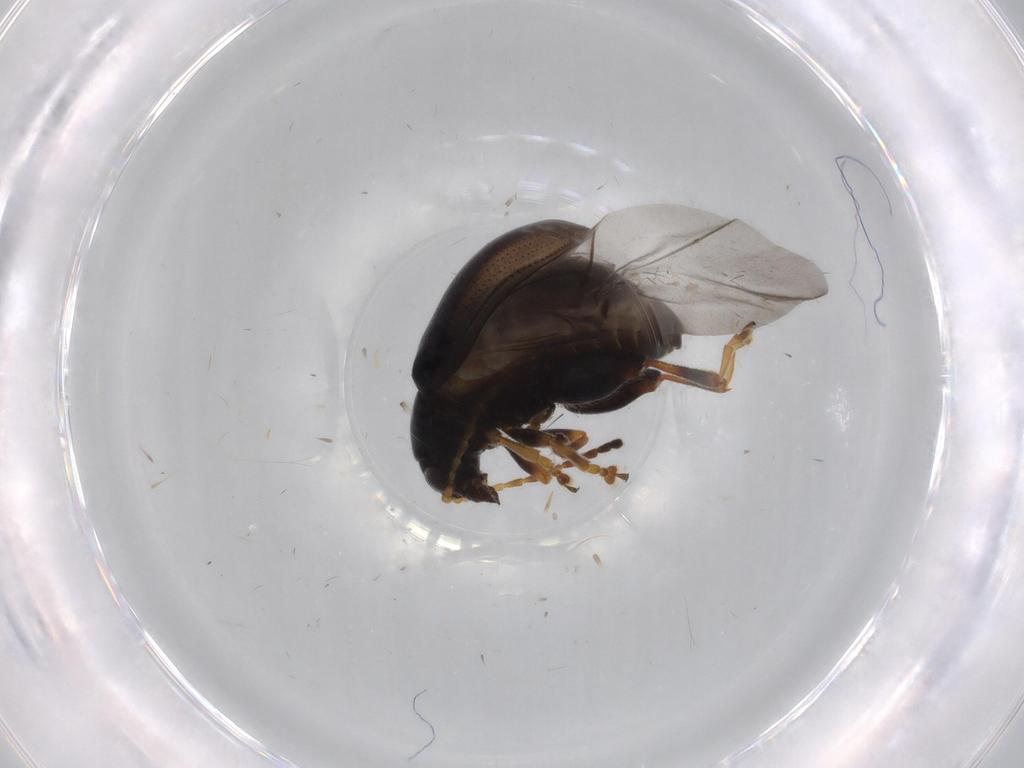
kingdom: Animalia
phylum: Arthropoda
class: Insecta
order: Coleoptera
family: Chrysomelidae
